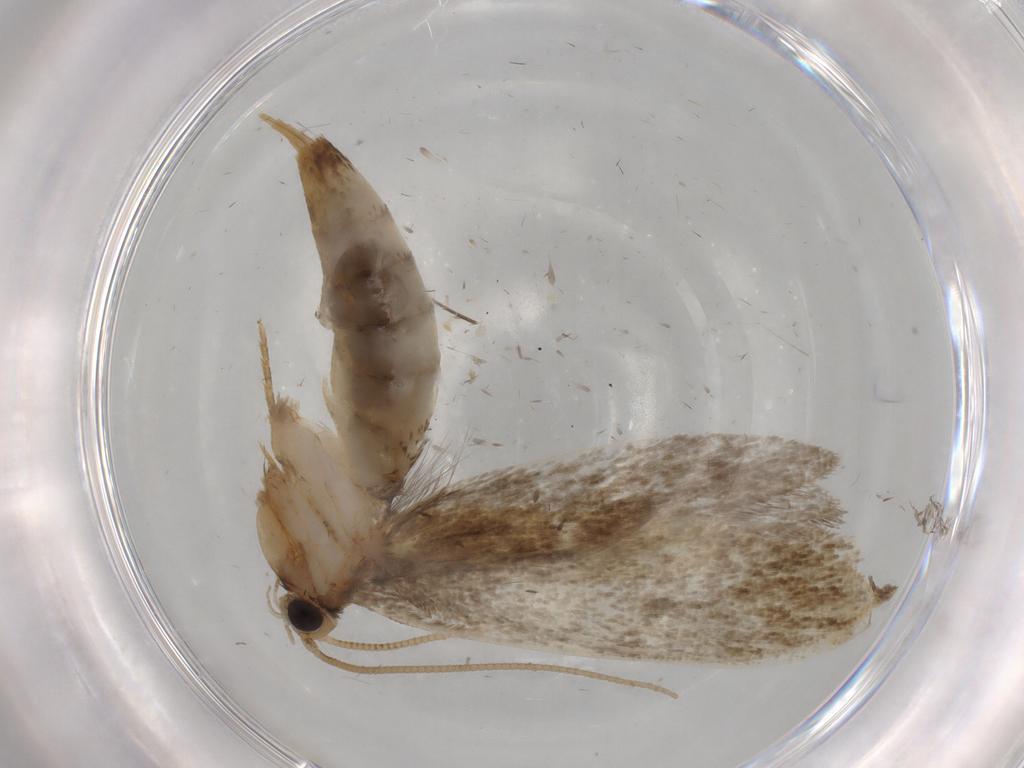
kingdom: Animalia
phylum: Arthropoda
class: Insecta
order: Lepidoptera
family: Tineidae
